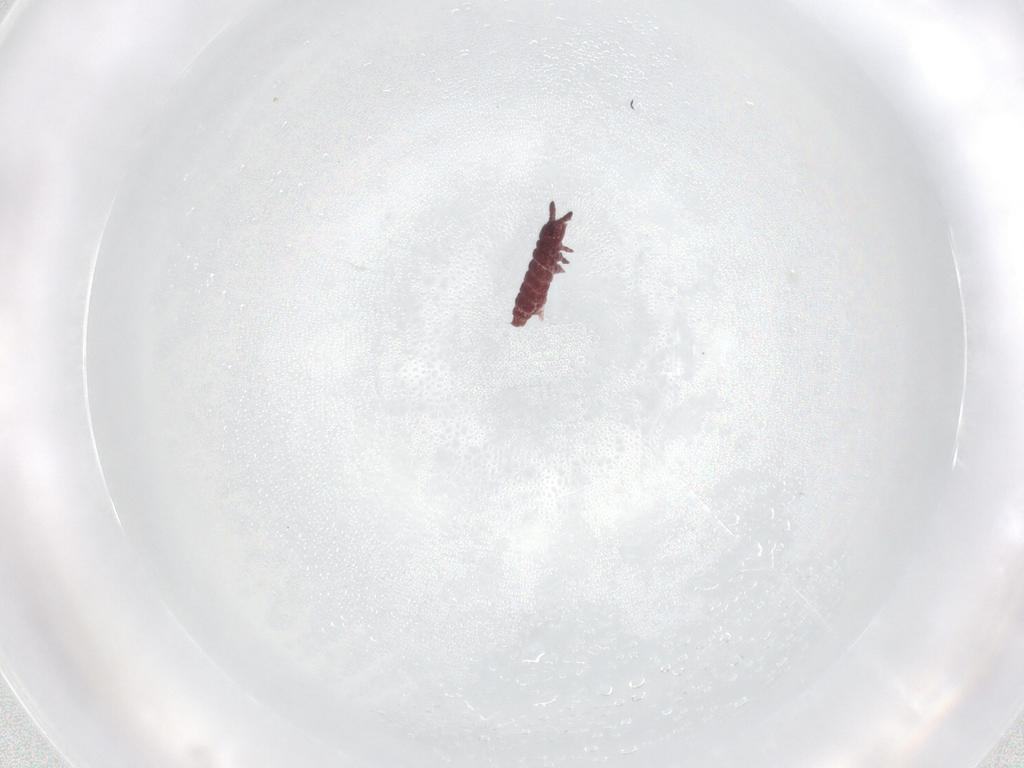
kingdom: Animalia
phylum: Arthropoda
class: Collembola
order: Poduromorpha
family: Hypogastruridae
